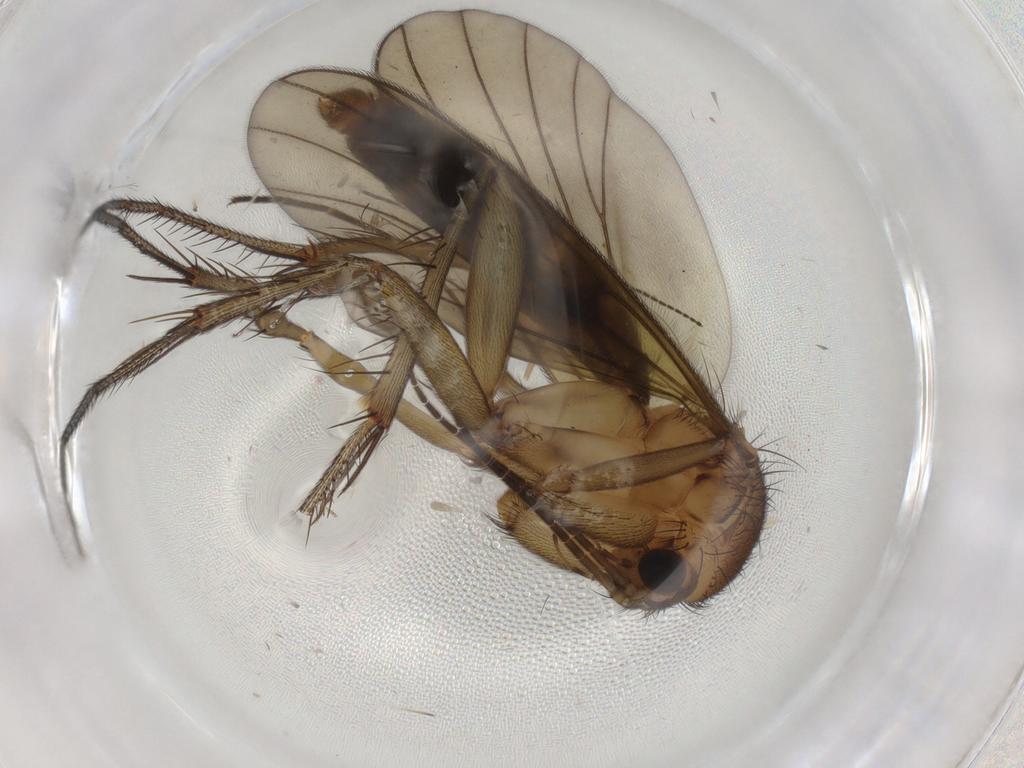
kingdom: Animalia
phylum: Arthropoda
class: Insecta
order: Diptera
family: Mycetophilidae
